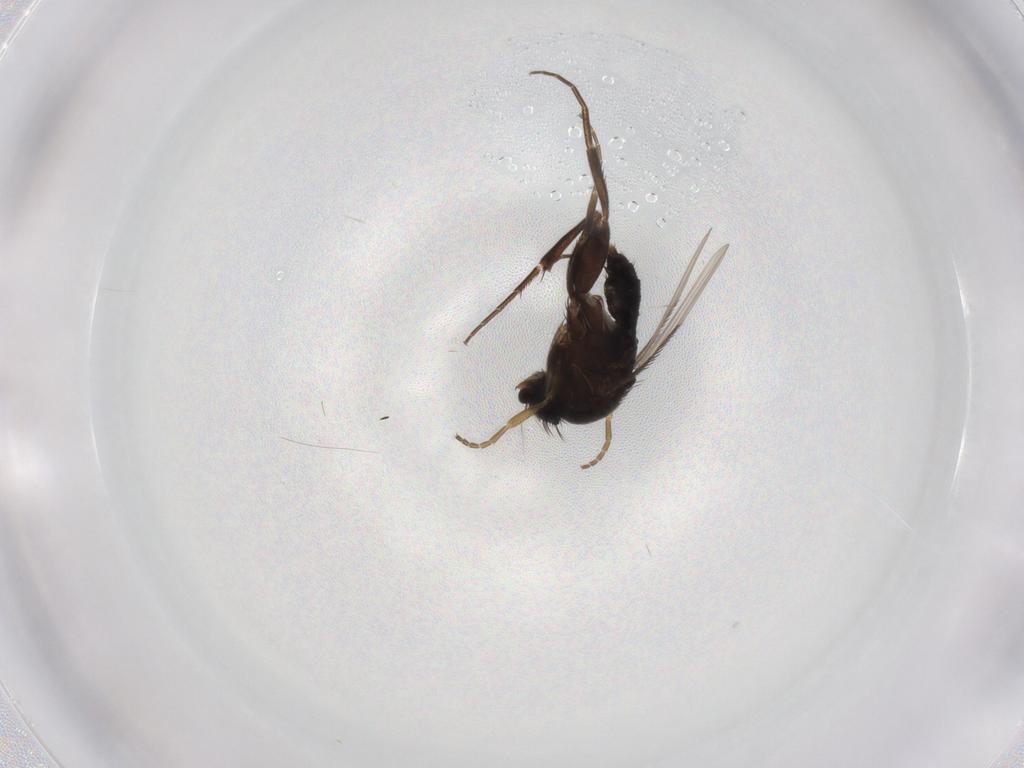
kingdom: Animalia
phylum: Arthropoda
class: Insecta
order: Diptera
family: Phoridae
